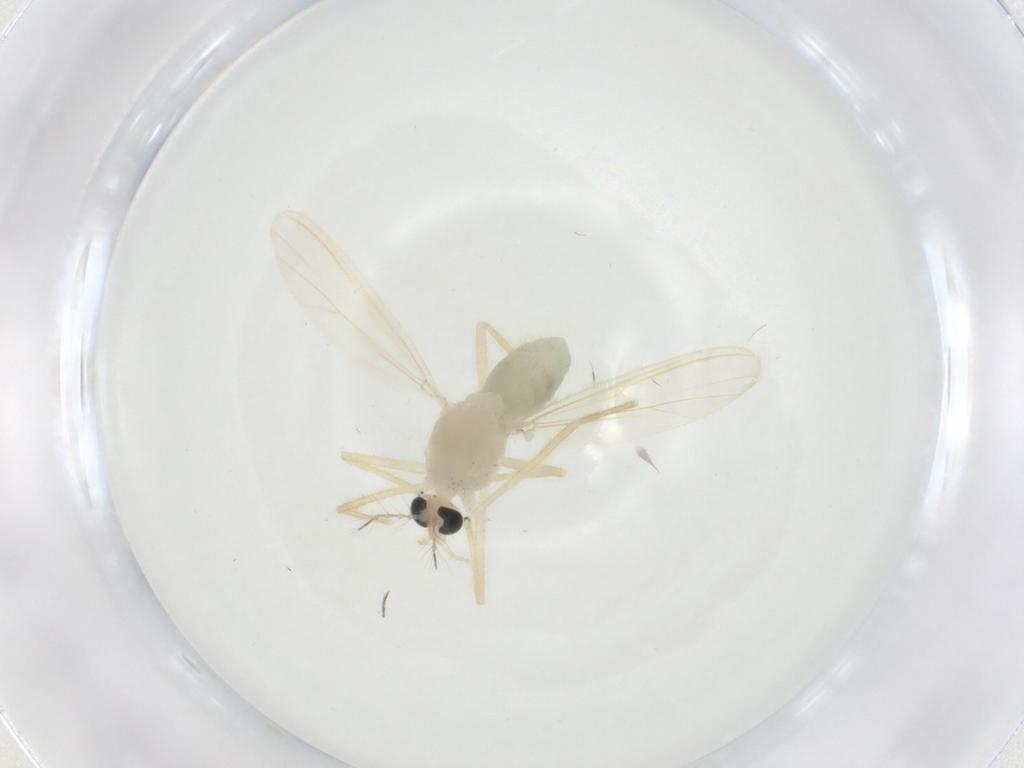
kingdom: Animalia
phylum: Arthropoda
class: Insecta
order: Diptera
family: Chironomidae
